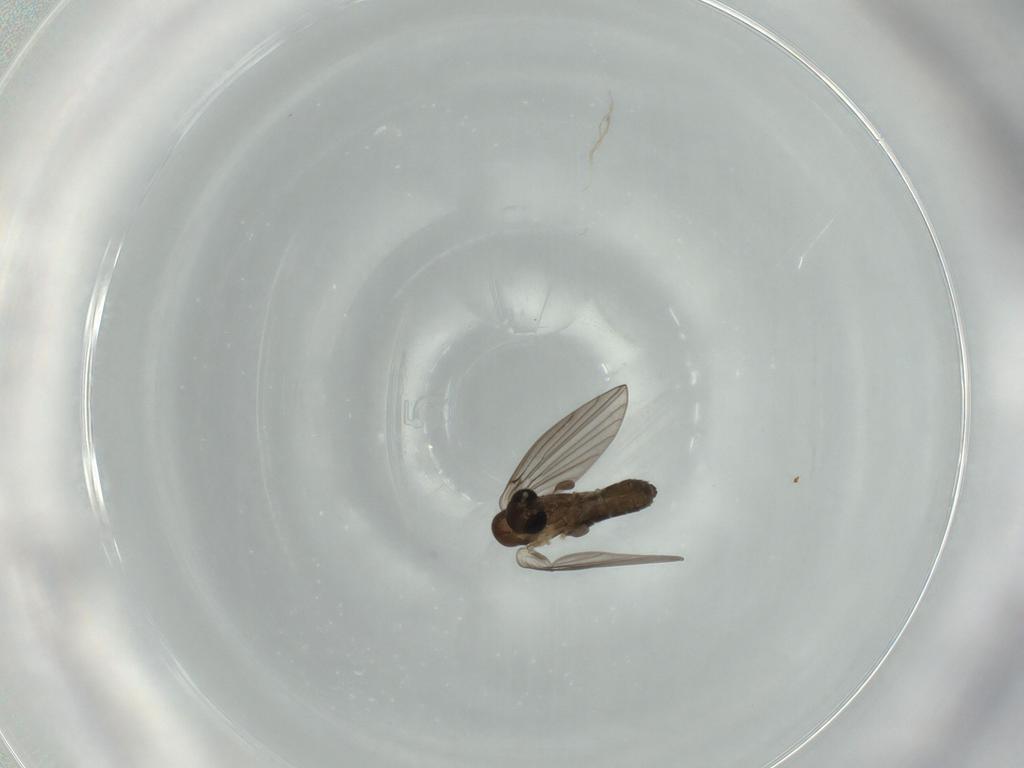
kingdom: Animalia
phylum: Arthropoda
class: Insecta
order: Diptera
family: Psychodidae
